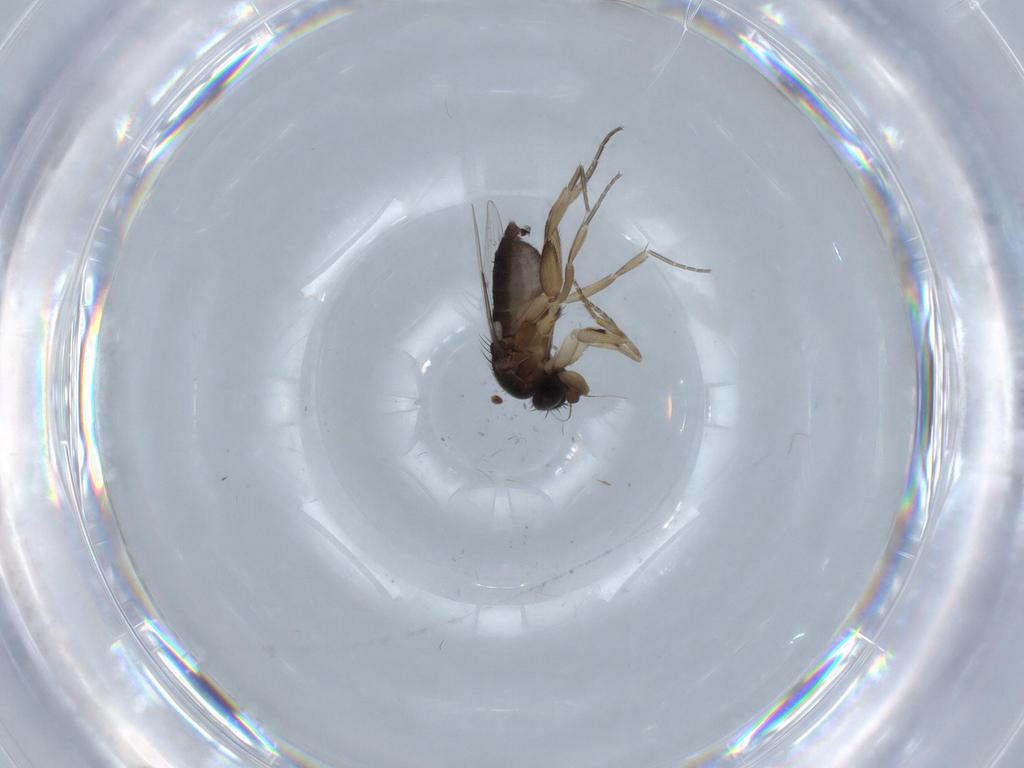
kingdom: Animalia
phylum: Arthropoda
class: Insecta
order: Diptera
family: Phoridae
